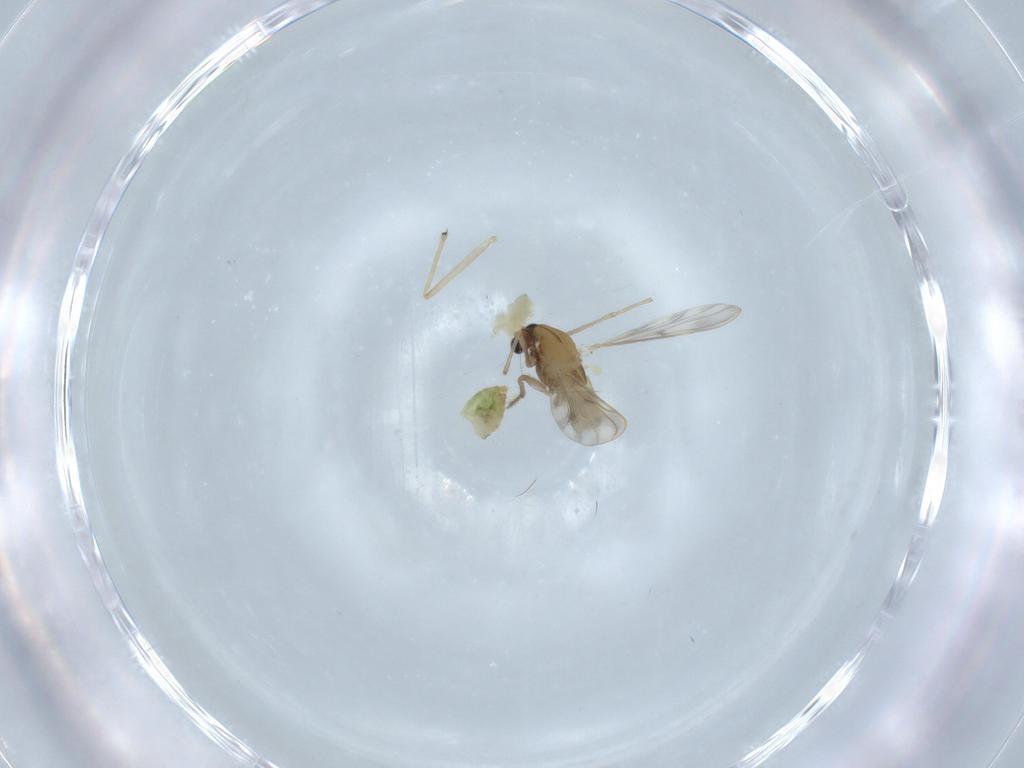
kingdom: Animalia
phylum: Arthropoda
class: Insecta
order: Diptera
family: Chironomidae
